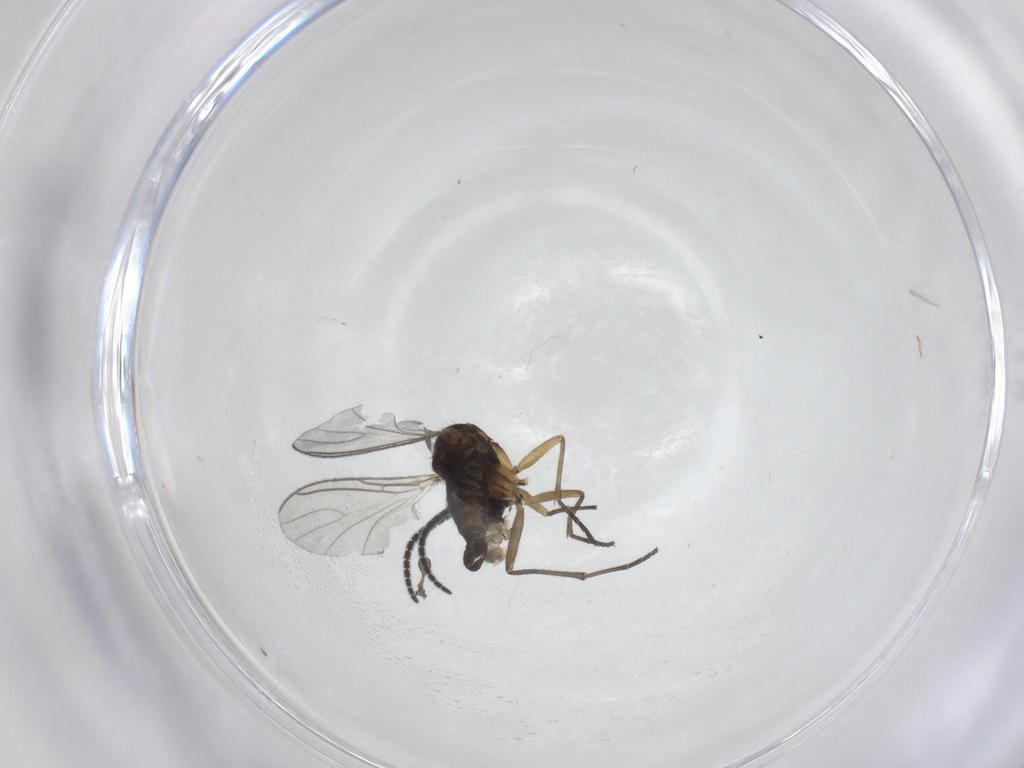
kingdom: Animalia
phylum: Arthropoda
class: Insecta
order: Diptera
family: Sciaridae
